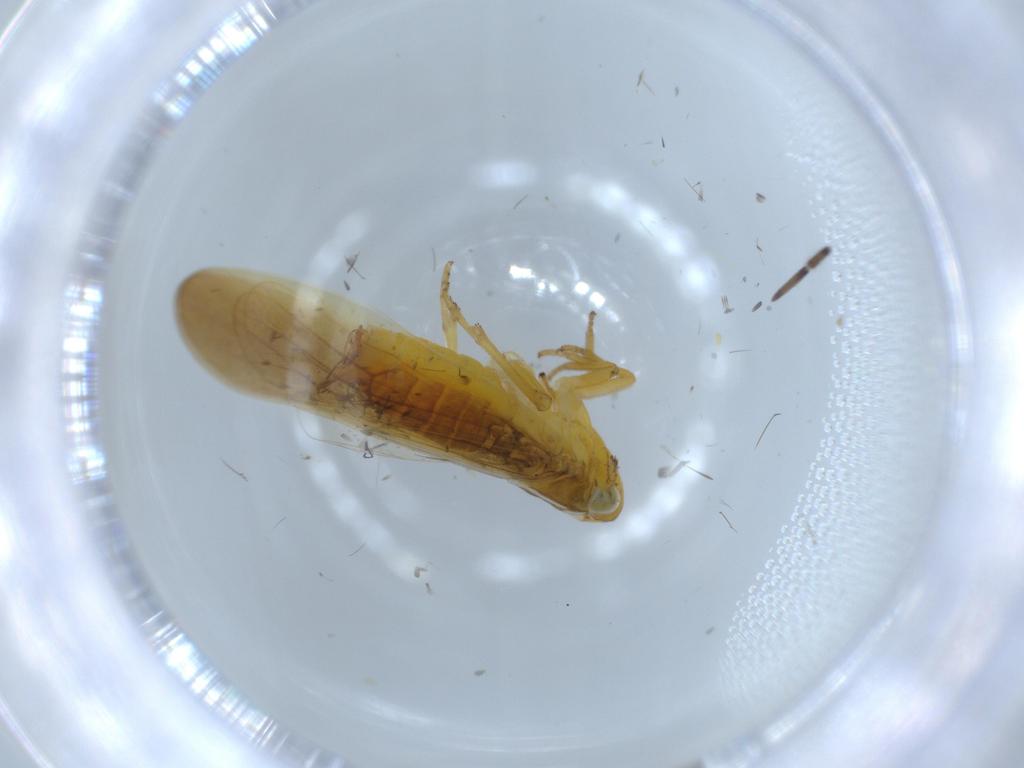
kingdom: Animalia
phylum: Arthropoda
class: Insecta
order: Hemiptera
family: Delphacidae
